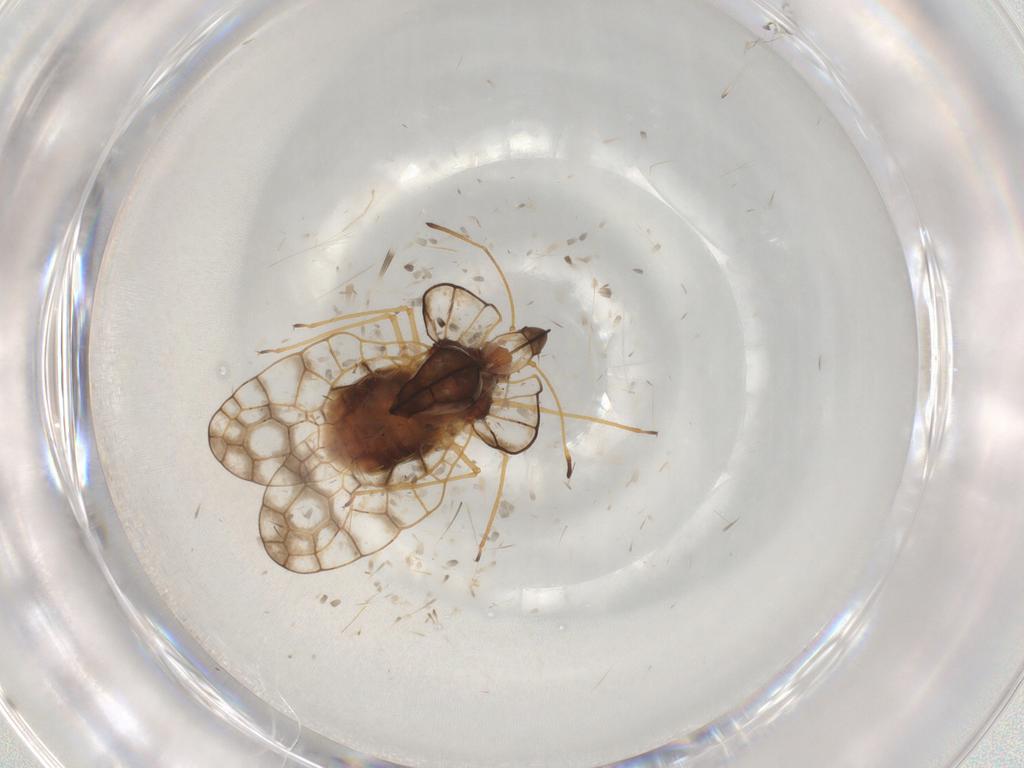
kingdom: Animalia
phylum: Arthropoda
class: Insecta
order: Hemiptera
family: Tingidae
